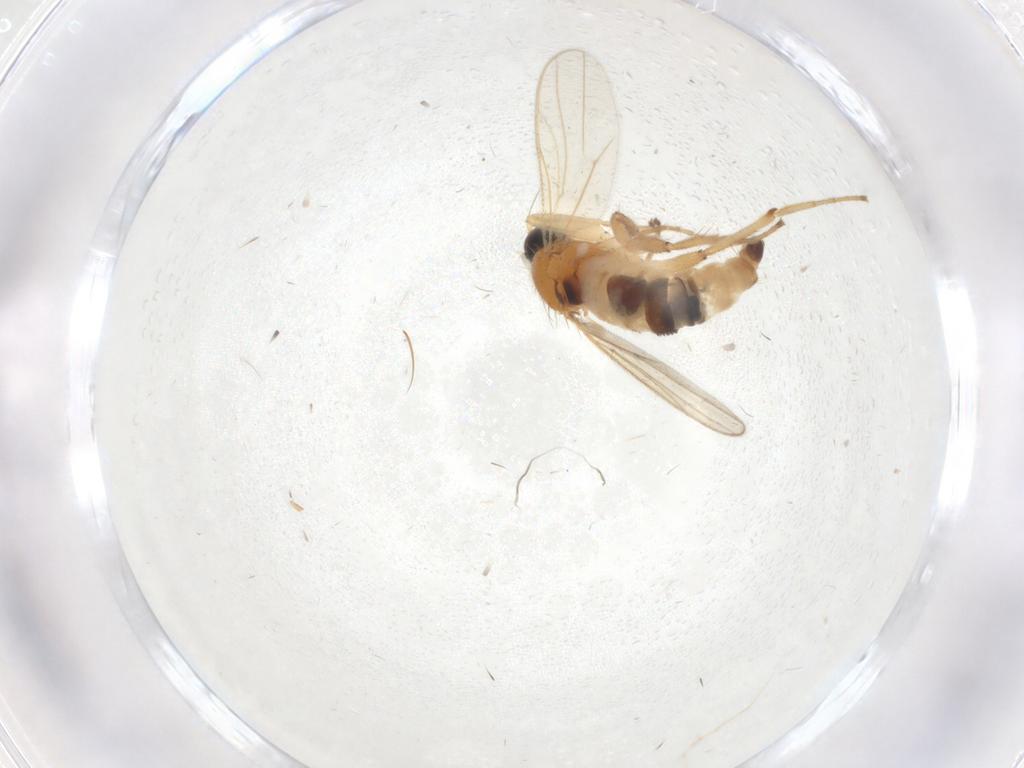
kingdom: Animalia
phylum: Arthropoda
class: Insecta
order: Diptera
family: Hybotidae
